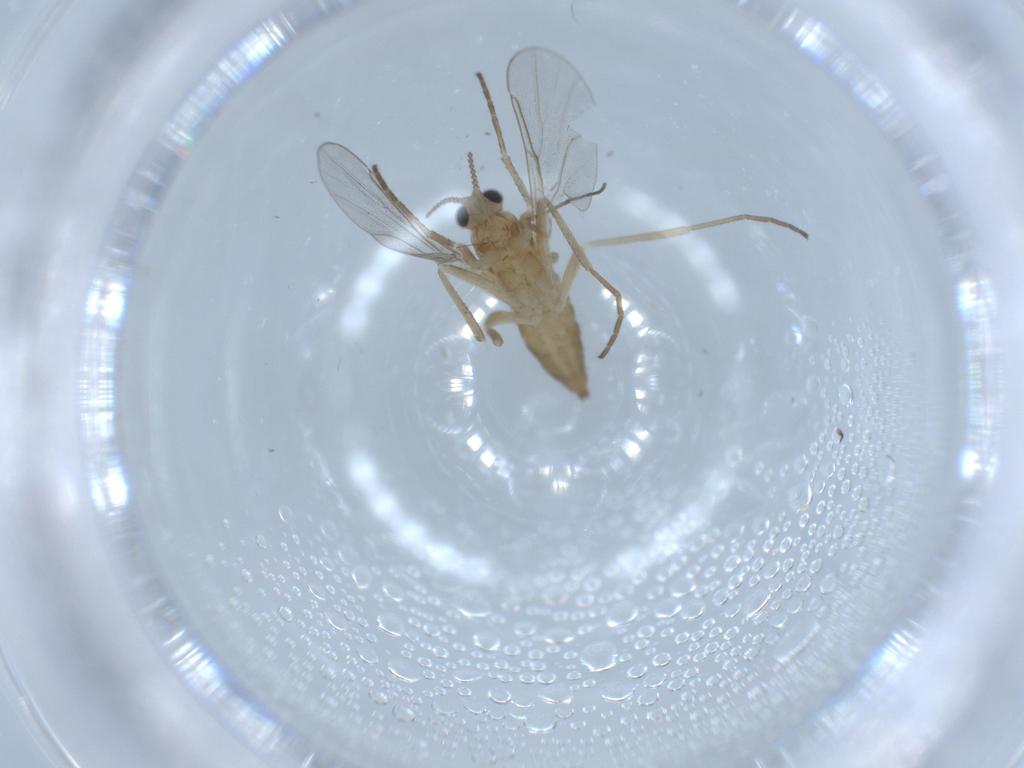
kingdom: Animalia
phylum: Arthropoda
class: Insecta
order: Diptera
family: Cecidomyiidae
